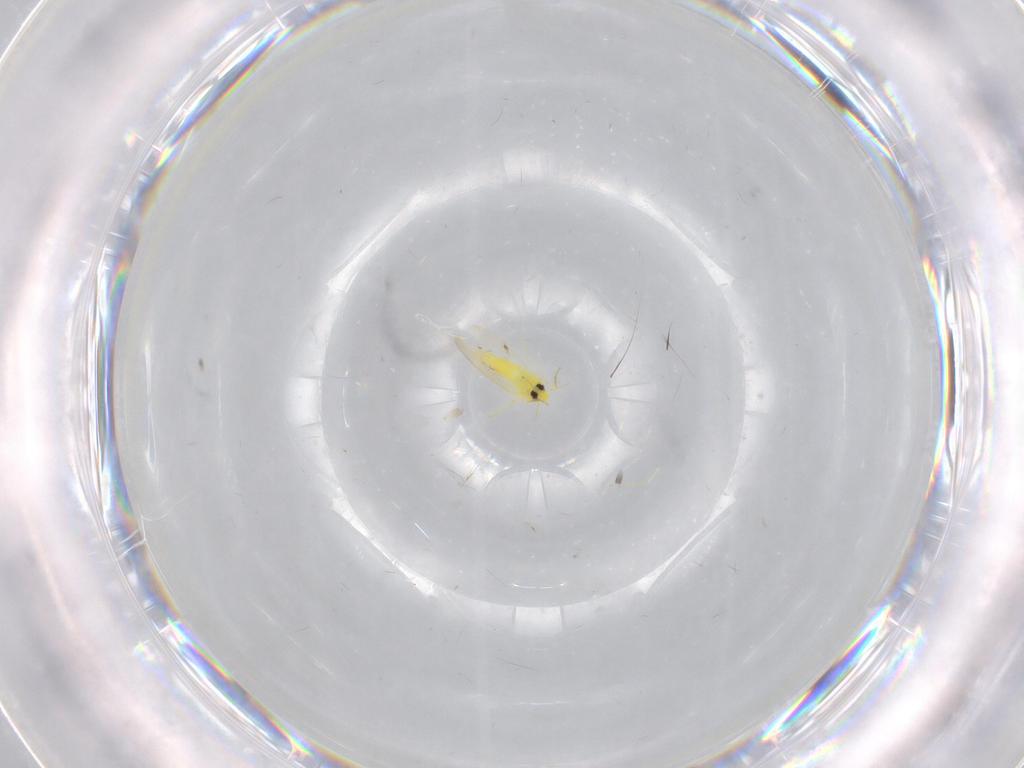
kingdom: Animalia
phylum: Arthropoda
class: Insecta
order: Hemiptera
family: Aleyrodidae
